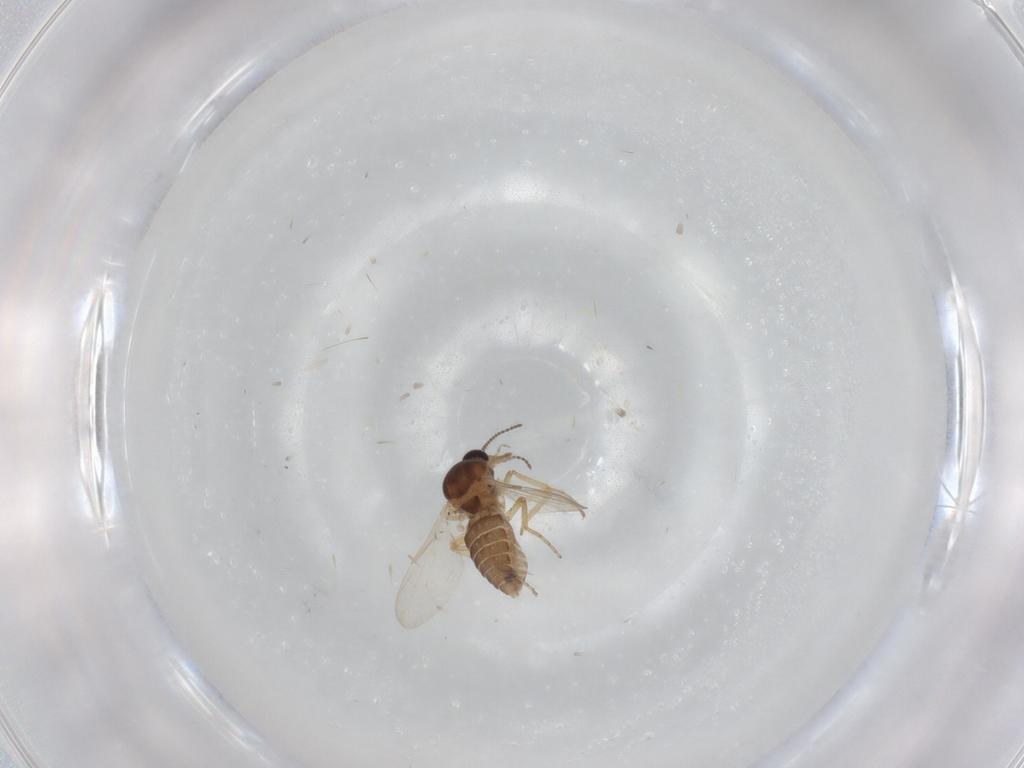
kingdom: Animalia
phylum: Arthropoda
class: Insecta
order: Diptera
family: Ceratopogonidae
